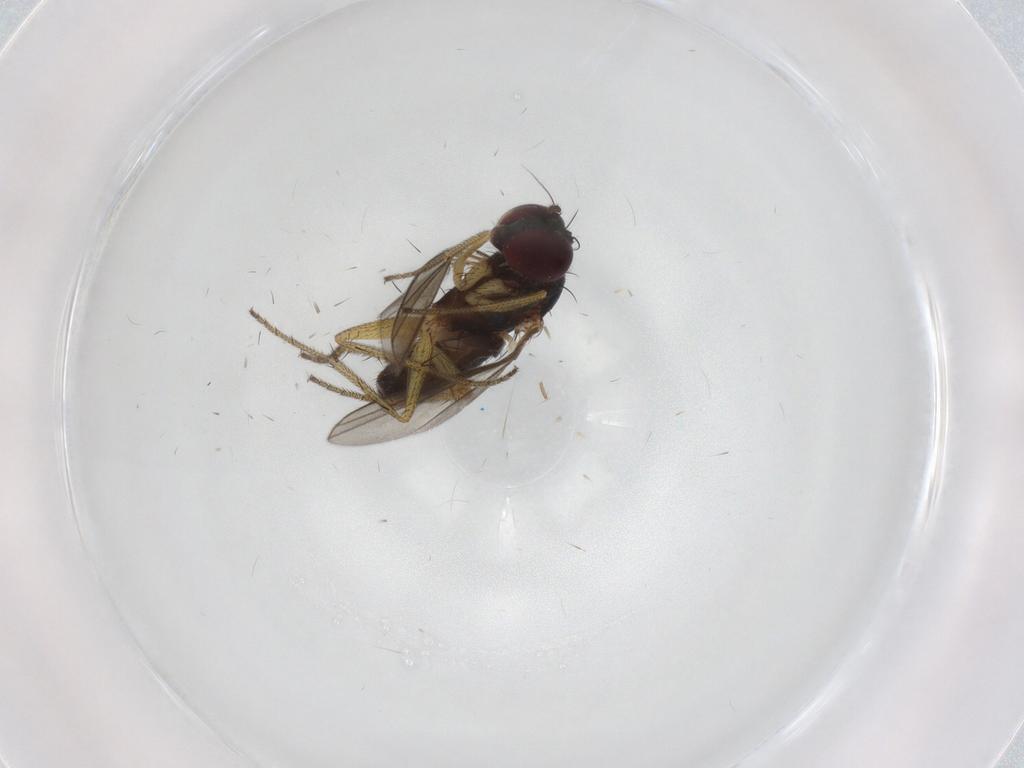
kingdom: Animalia
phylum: Arthropoda
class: Insecta
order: Diptera
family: Dolichopodidae
